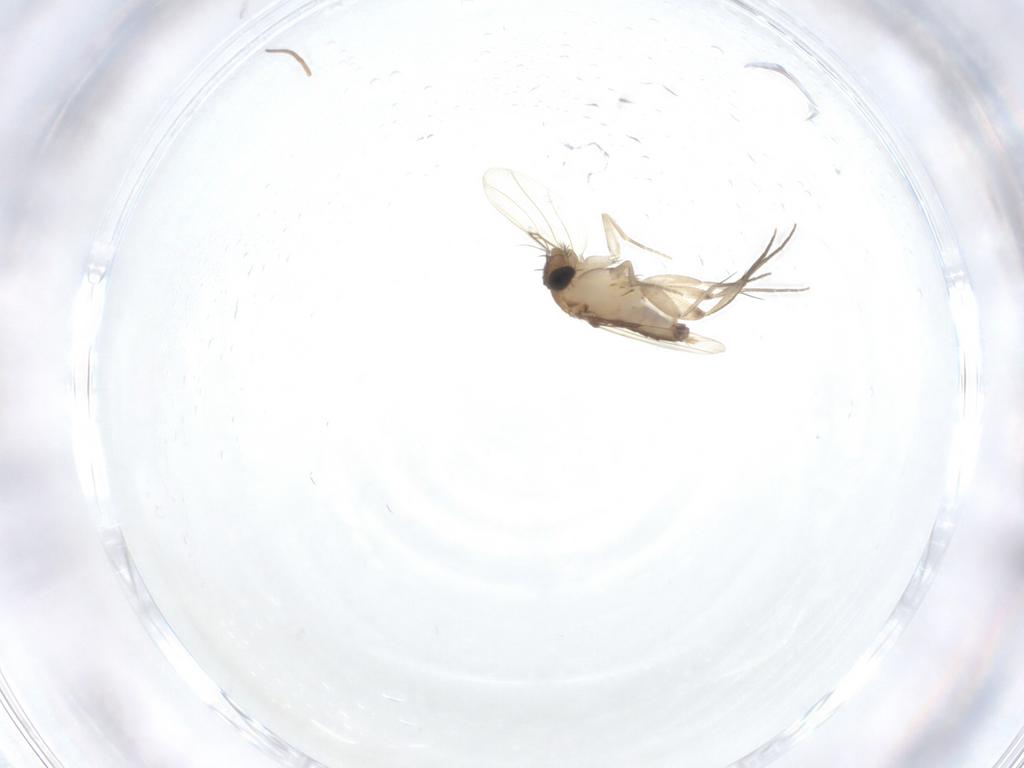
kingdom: Animalia
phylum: Arthropoda
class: Insecta
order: Diptera
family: Phoridae
